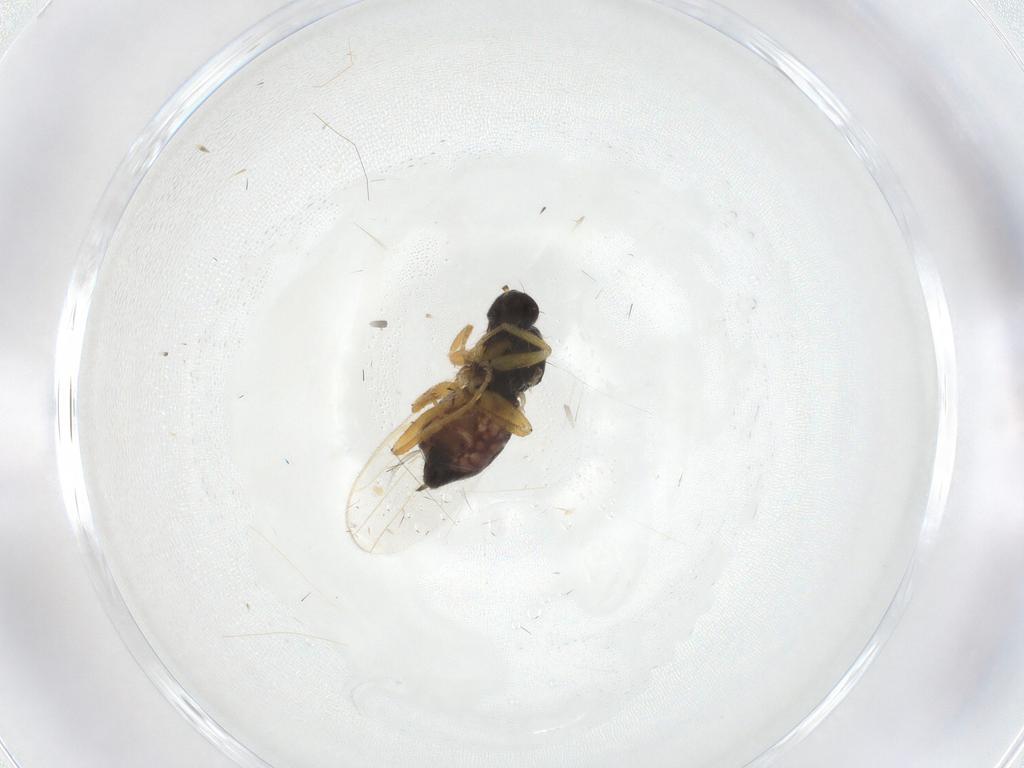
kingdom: Animalia
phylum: Arthropoda
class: Insecta
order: Diptera
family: Hybotidae
